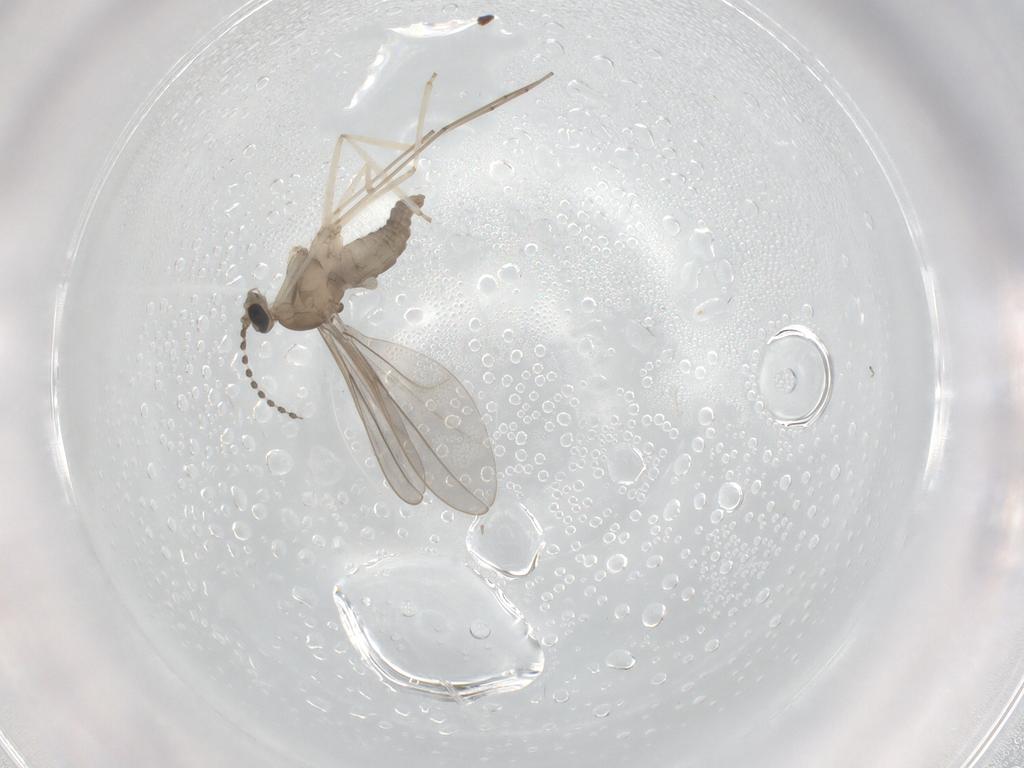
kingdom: Animalia
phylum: Arthropoda
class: Insecta
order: Diptera
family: Cecidomyiidae
